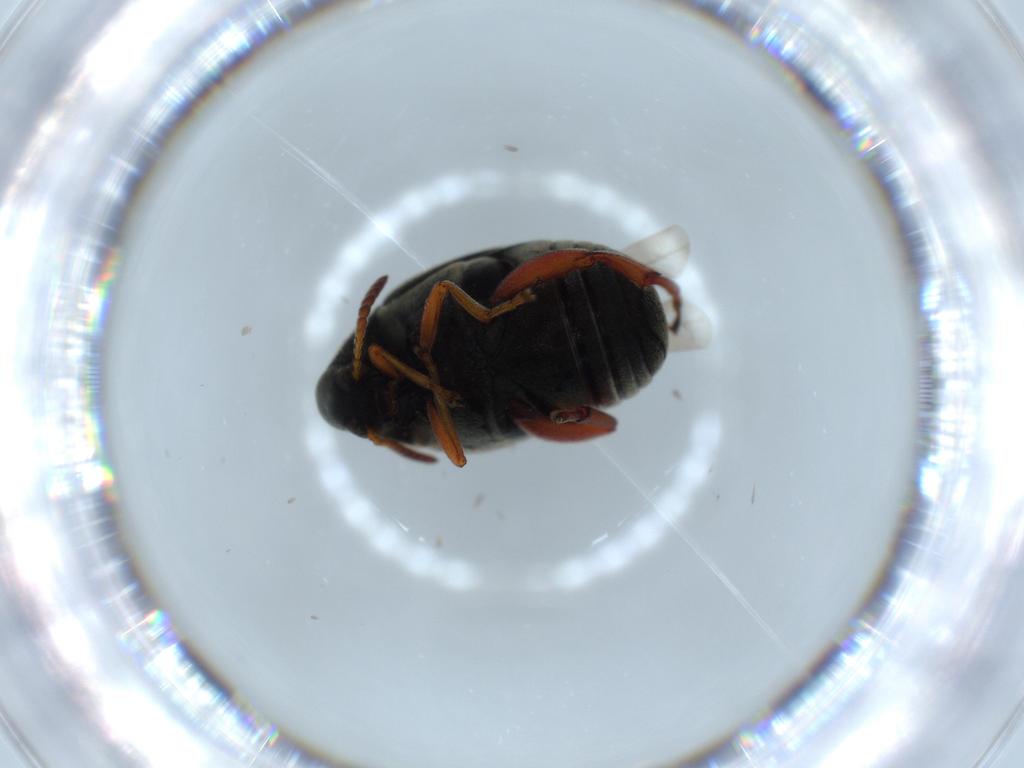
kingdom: Animalia
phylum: Arthropoda
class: Insecta
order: Coleoptera
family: Chrysomelidae
